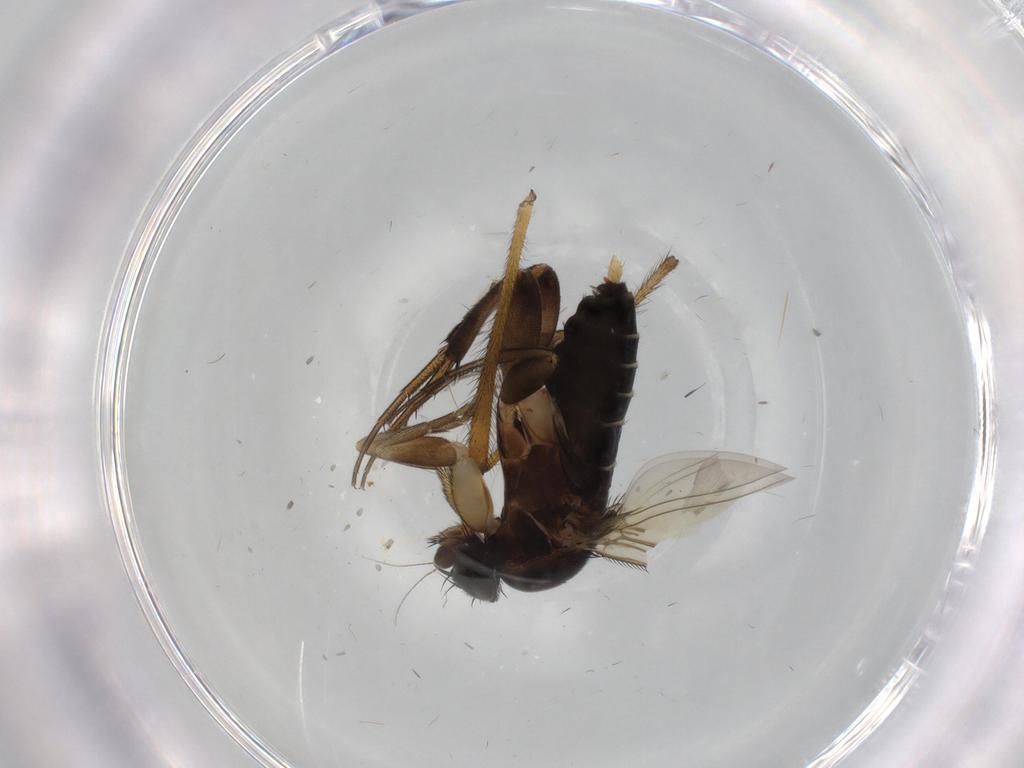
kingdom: Animalia
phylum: Arthropoda
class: Insecta
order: Diptera
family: Phoridae
